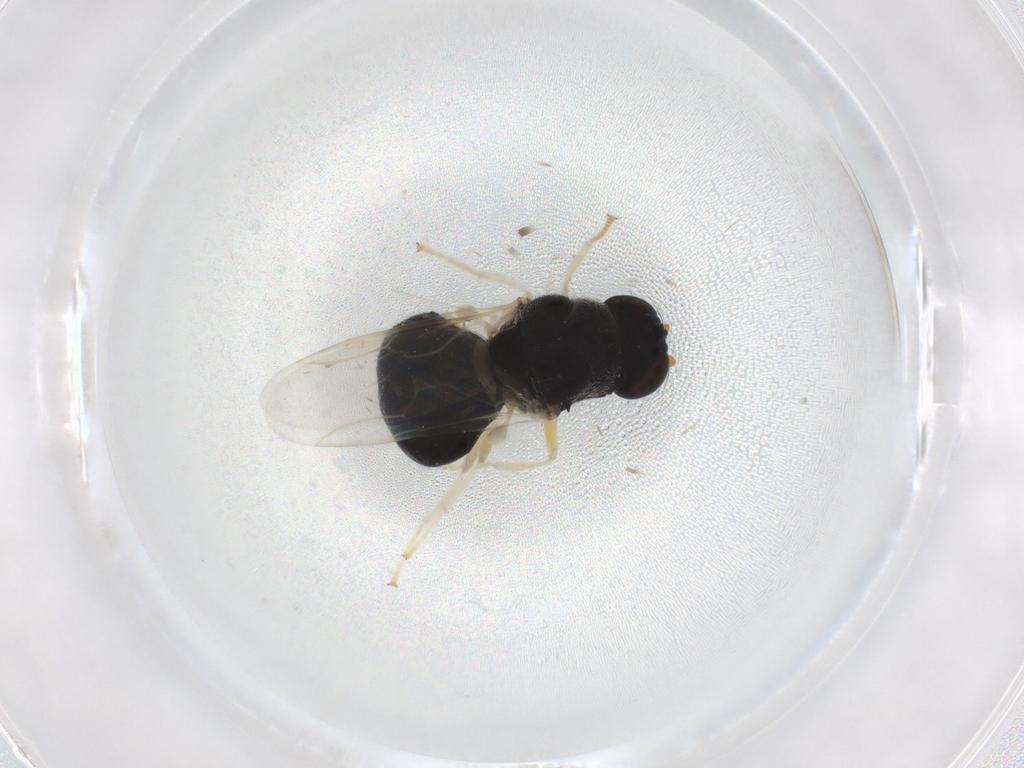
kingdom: Animalia
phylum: Arthropoda
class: Insecta
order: Diptera
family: Stratiomyidae
